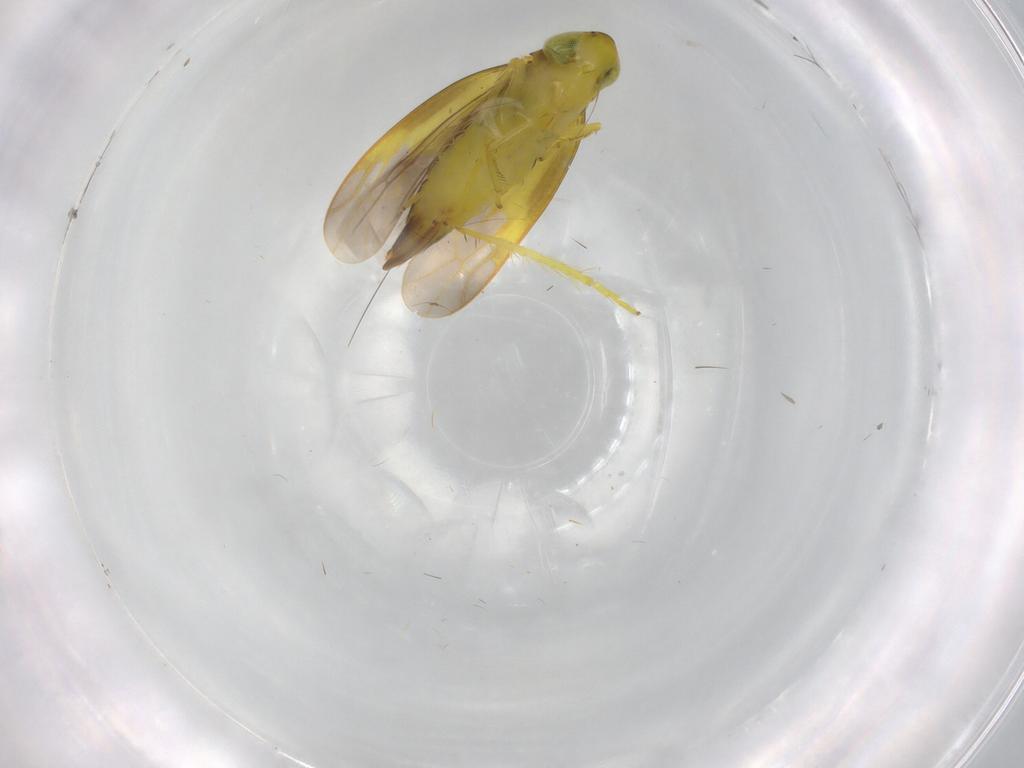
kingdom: Animalia
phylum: Arthropoda
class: Insecta
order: Hemiptera
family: Cicadellidae
